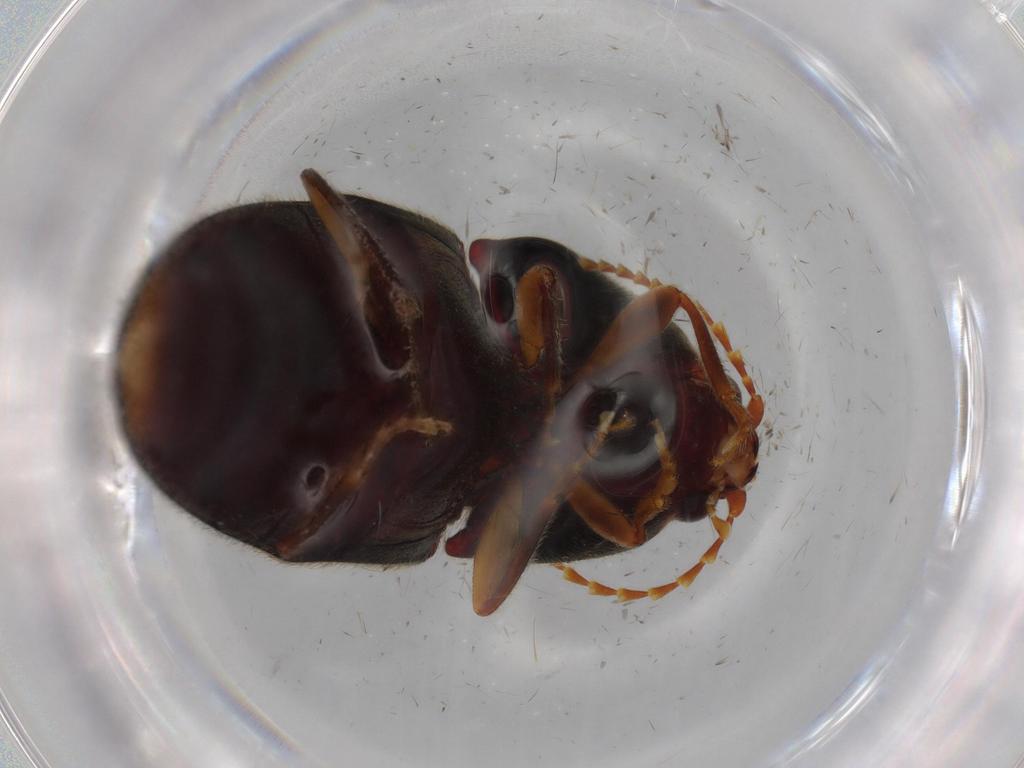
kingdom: Animalia
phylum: Arthropoda
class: Insecta
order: Coleoptera
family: Elateridae
